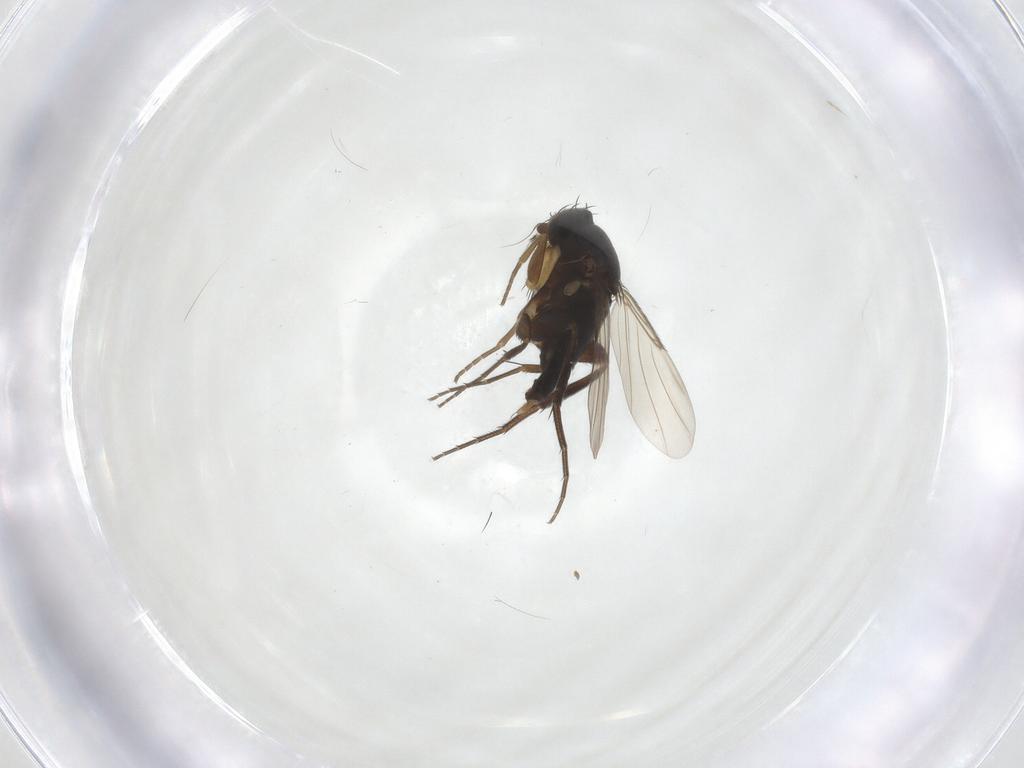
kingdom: Animalia
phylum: Arthropoda
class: Insecta
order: Diptera
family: Phoridae
